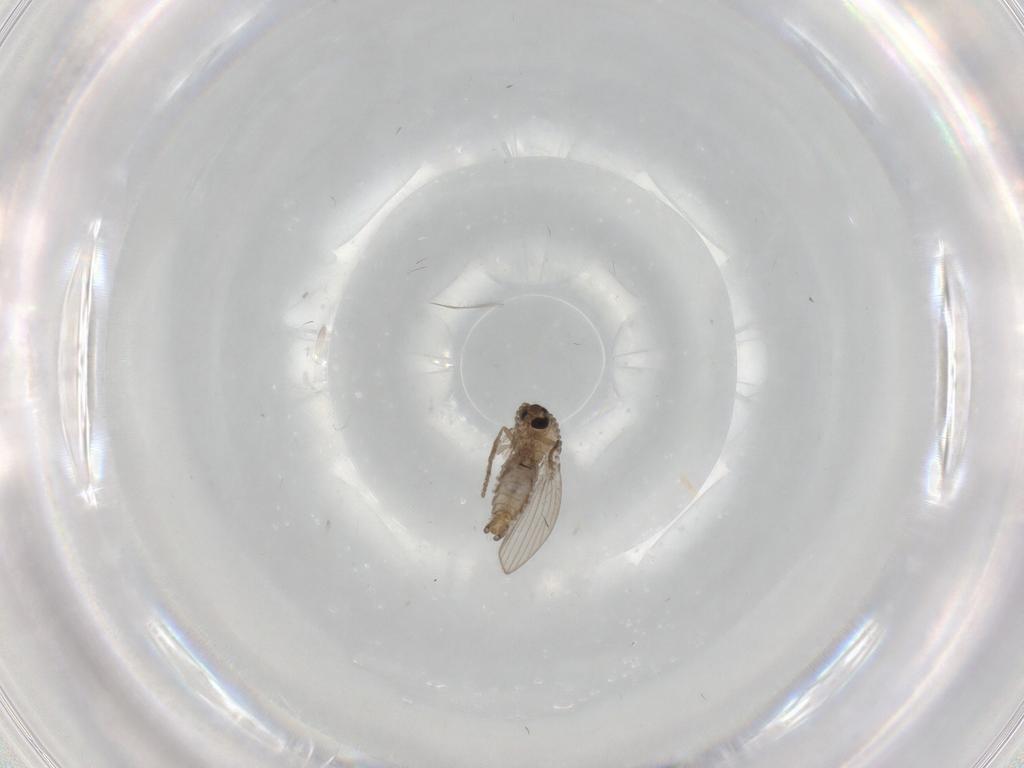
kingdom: Animalia
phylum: Arthropoda
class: Insecta
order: Diptera
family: Psychodidae
